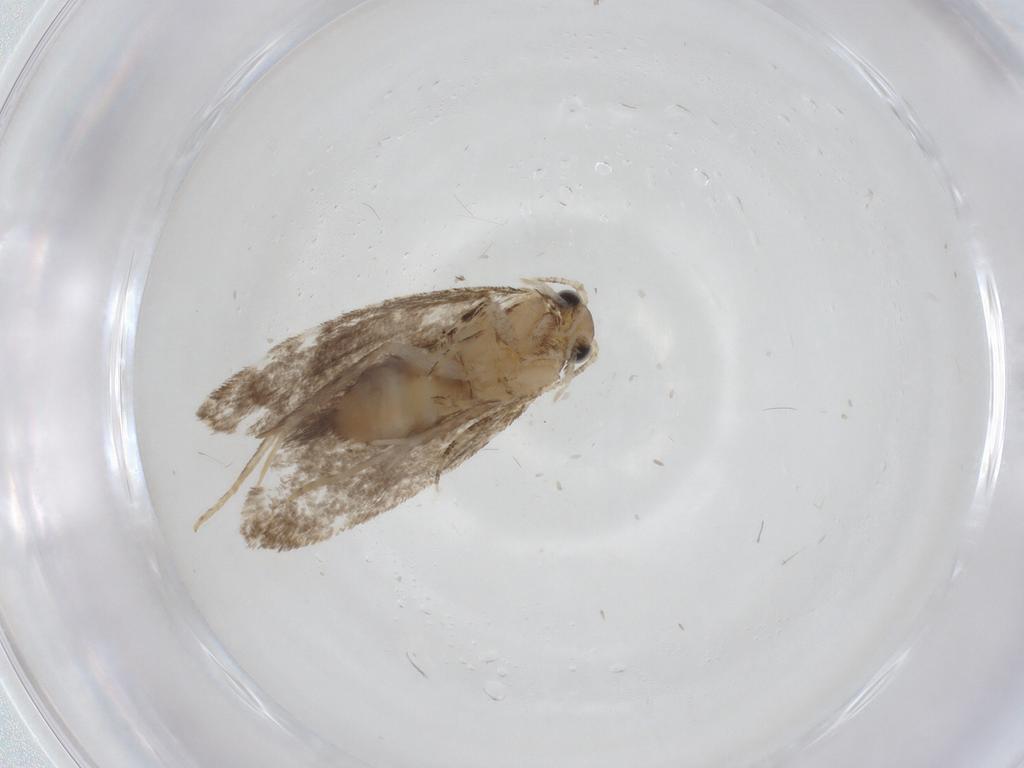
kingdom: Animalia
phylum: Arthropoda
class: Insecta
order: Lepidoptera
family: Tineidae
